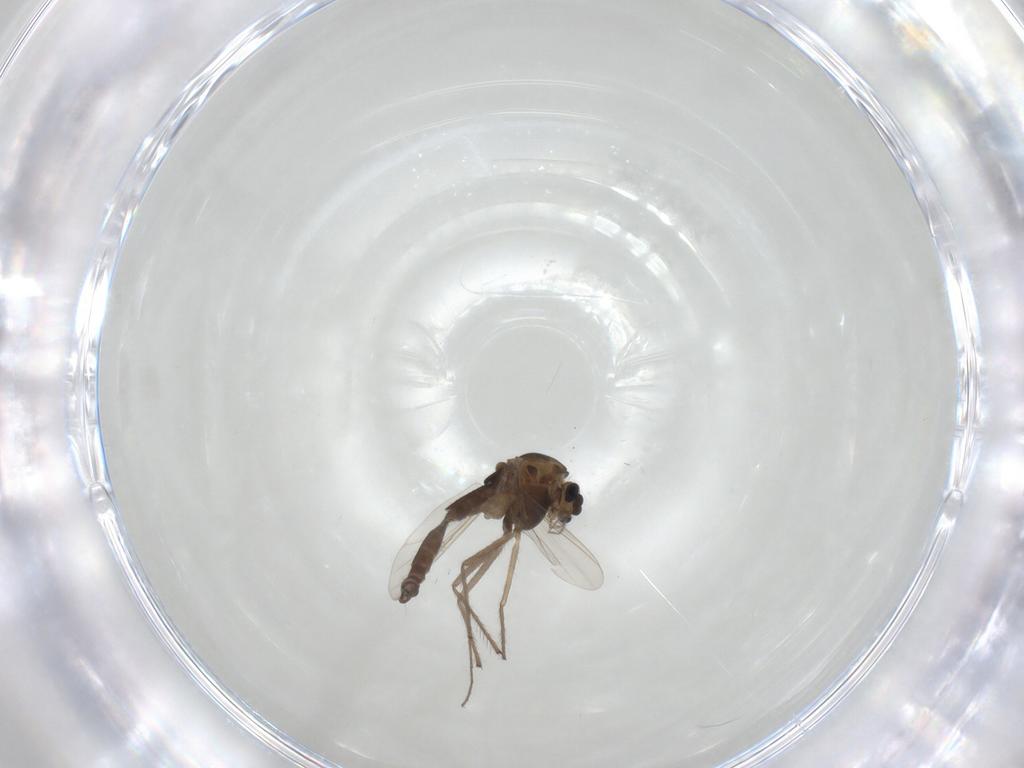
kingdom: Animalia
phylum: Arthropoda
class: Insecta
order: Diptera
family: Chironomidae
